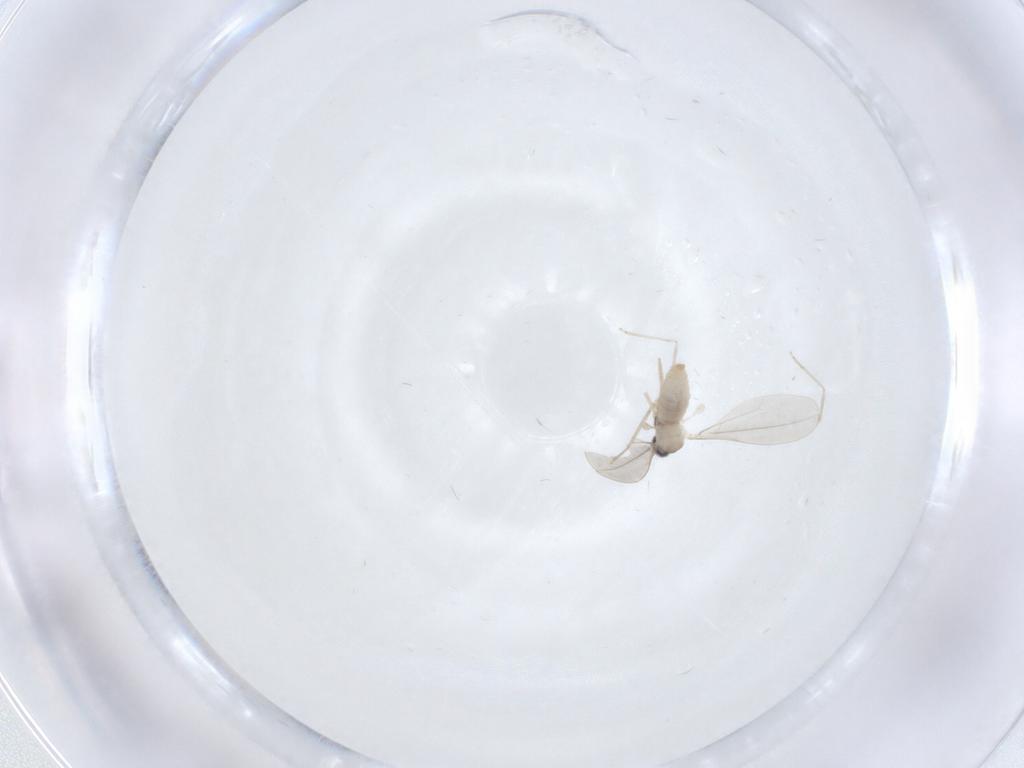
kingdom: Animalia
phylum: Arthropoda
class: Insecta
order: Diptera
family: Cecidomyiidae
